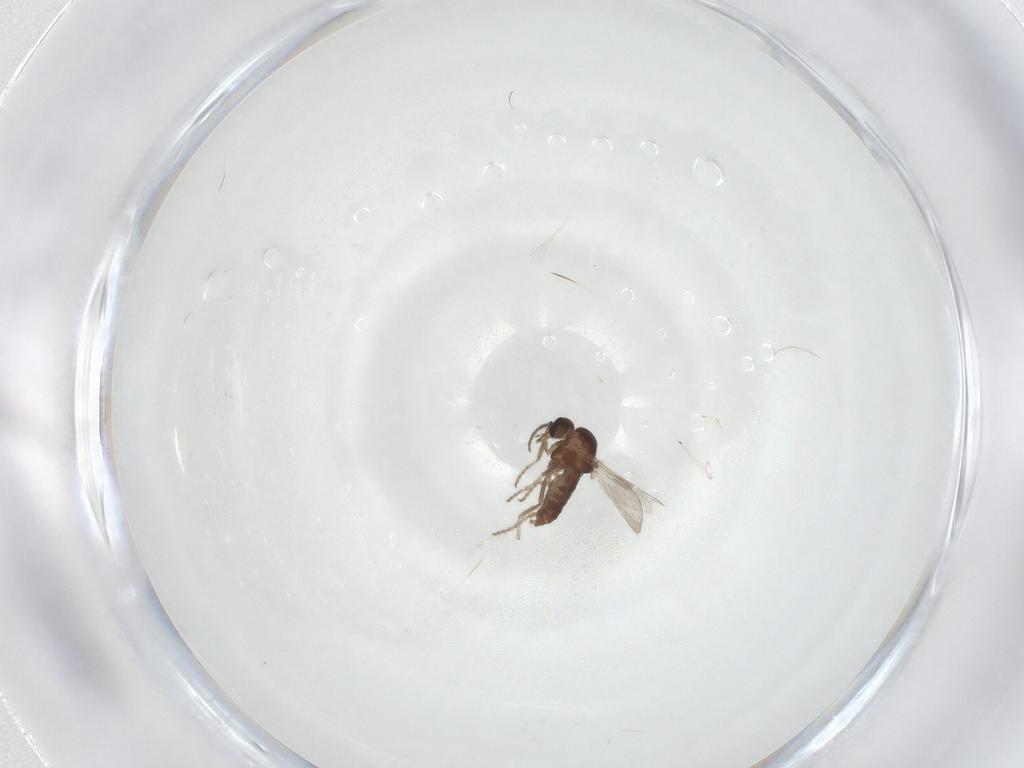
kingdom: Animalia
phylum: Arthropoda
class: Insecta
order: Diptera
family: Ceratopogonidae
